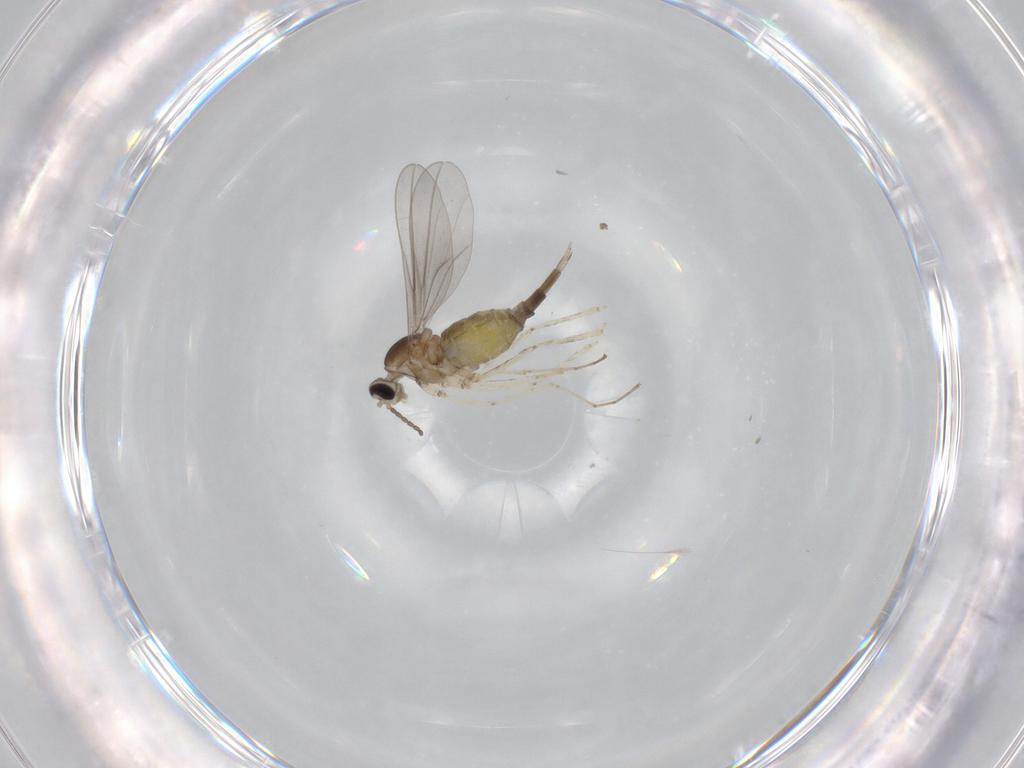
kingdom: Animalia
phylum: Arthropoda
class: Insecta
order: Diptera
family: Cecidomyiidae
